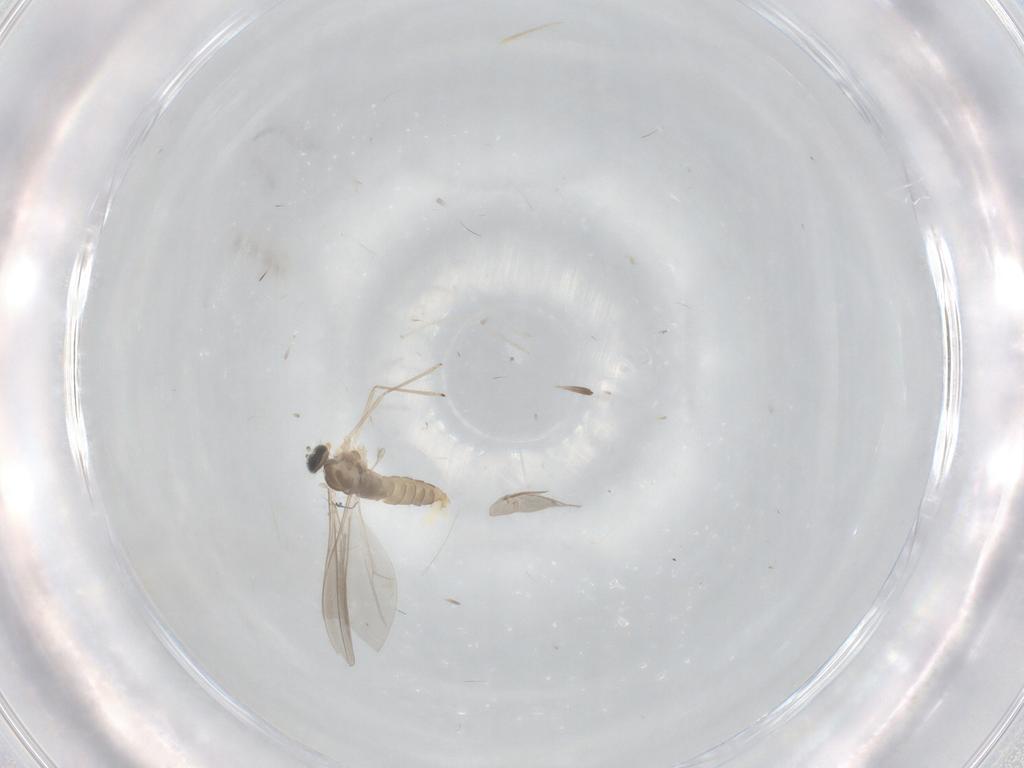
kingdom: Animalia
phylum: Arthropoda
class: Insecta
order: Diptera
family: Cecidomyiidae
